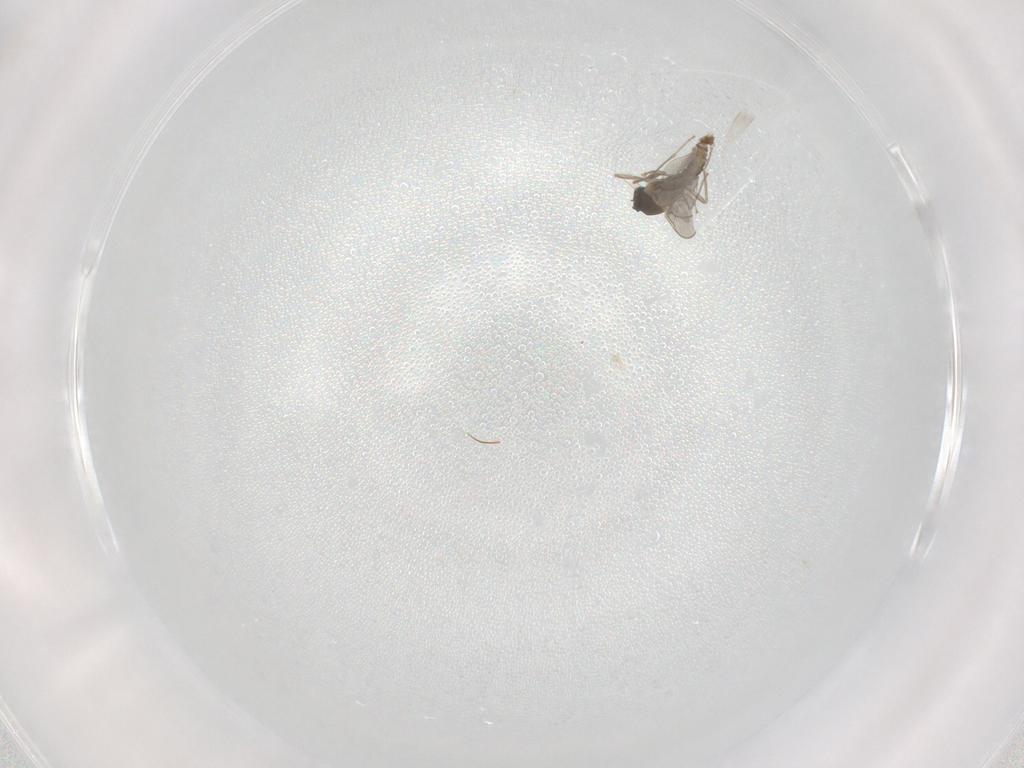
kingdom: Animalia
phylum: Arthropoda
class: Insecta
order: Diptera
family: Cecidomyiidae
